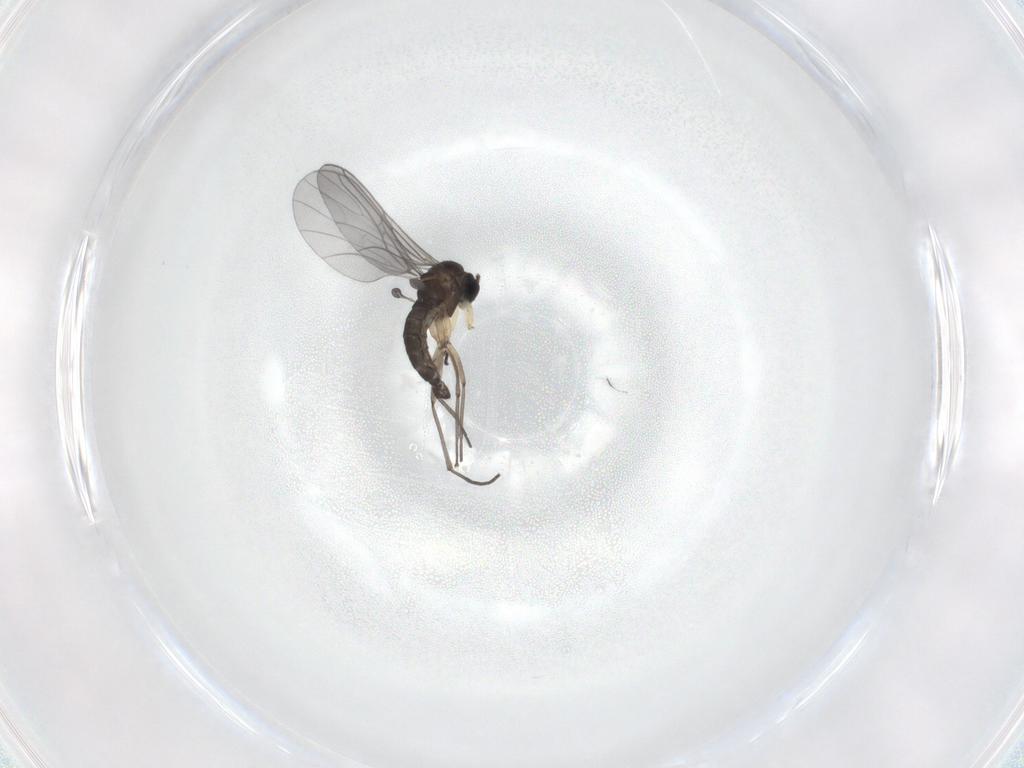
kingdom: Animalia
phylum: Arthropoda
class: Insecta
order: Diptera
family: Sciaridae
